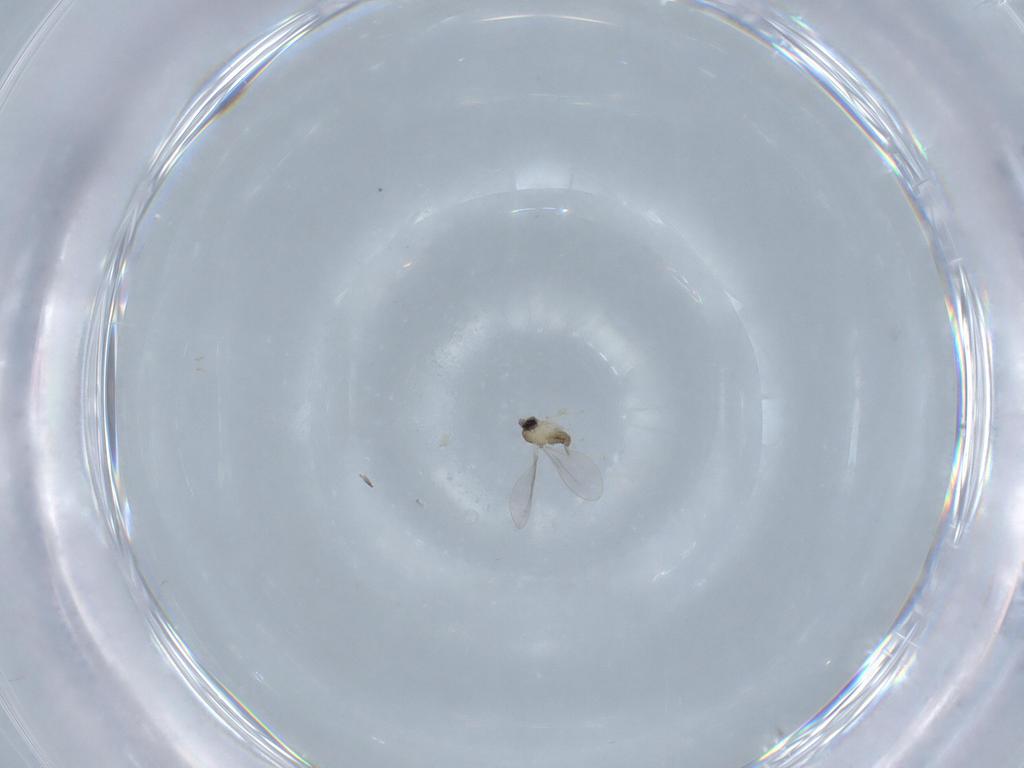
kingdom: Animalia
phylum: Arthropoda
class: Insecta
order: Diptera
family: Cecidomyiidae
